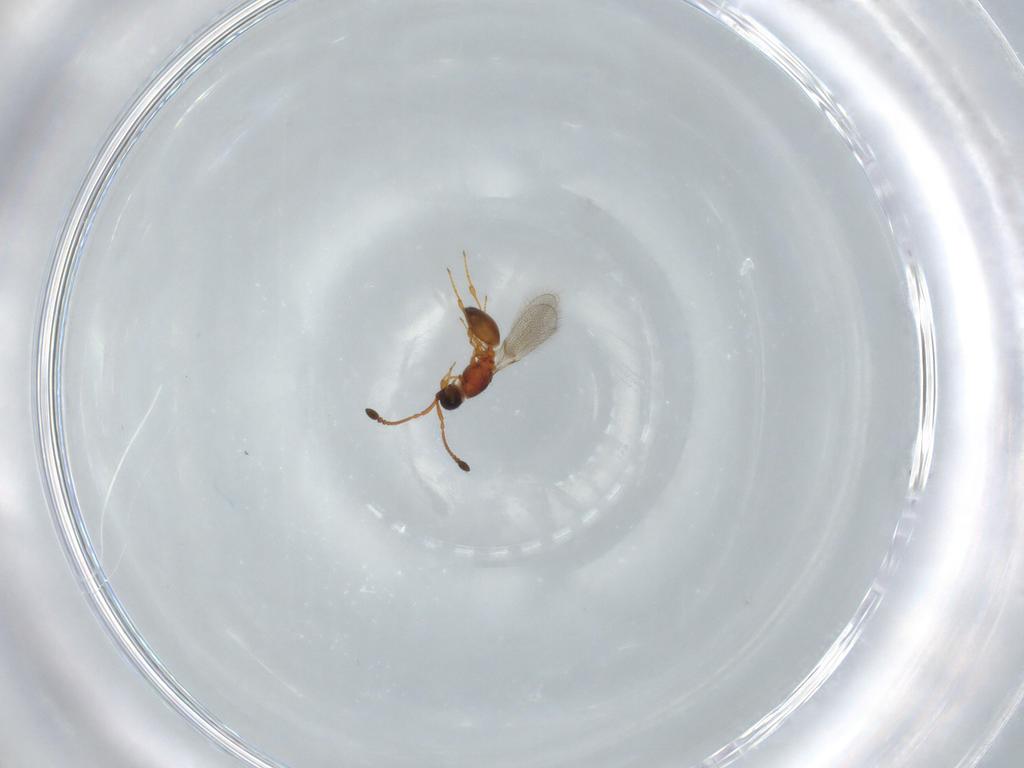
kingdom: Animalia
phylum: Arthropoda
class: Insecta
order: Hymenoptera
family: Diapriidae
